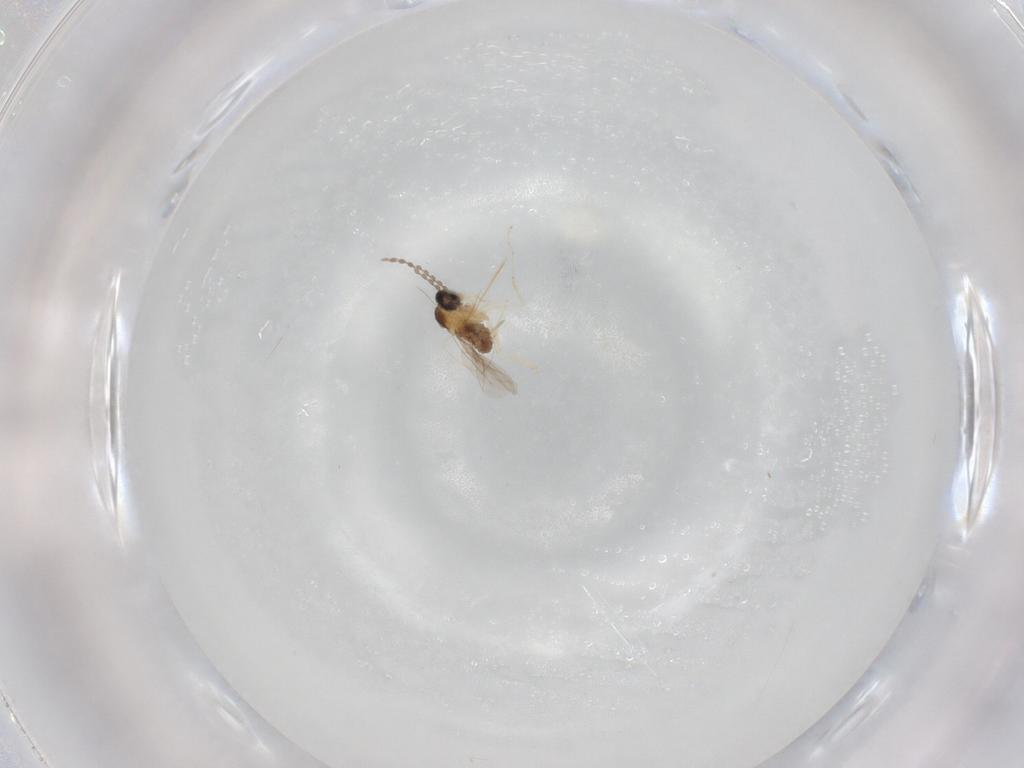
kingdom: Animalia
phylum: Arthropoda
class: Insecta
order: Diptera
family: Cecidomyiidae
